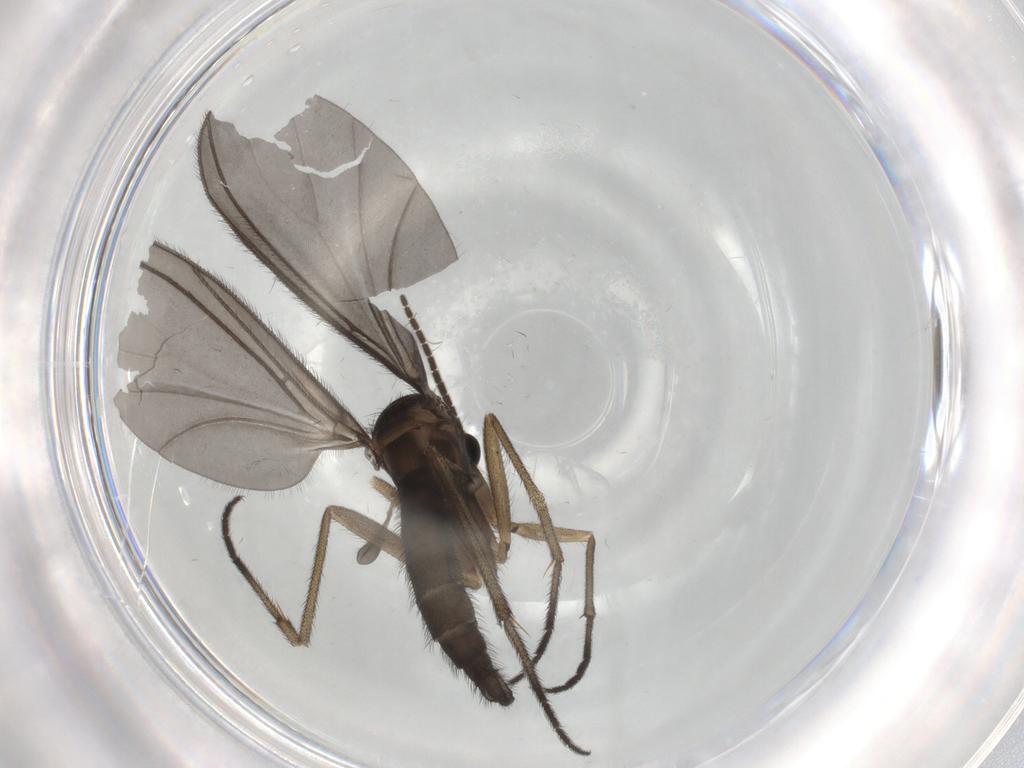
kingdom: Animalia
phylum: Arthropoda
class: Insecta
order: Diptera
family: Sciaridae
